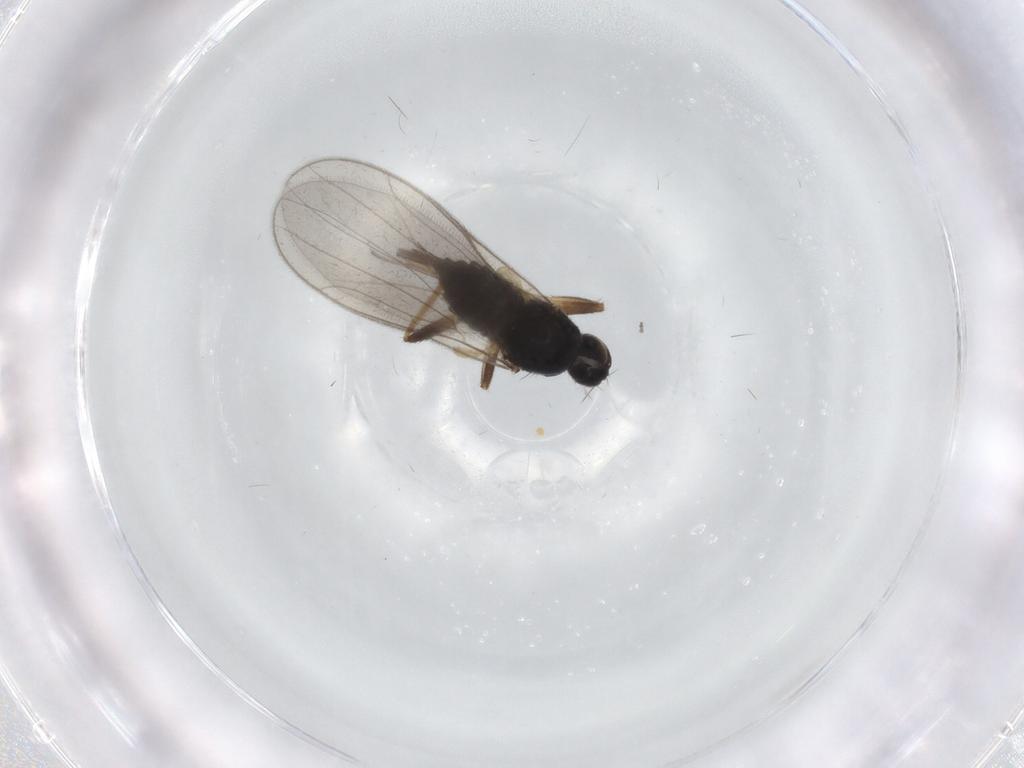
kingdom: Animalia
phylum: Arthropoda
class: Insecta
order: Diptera
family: Hybotidae
